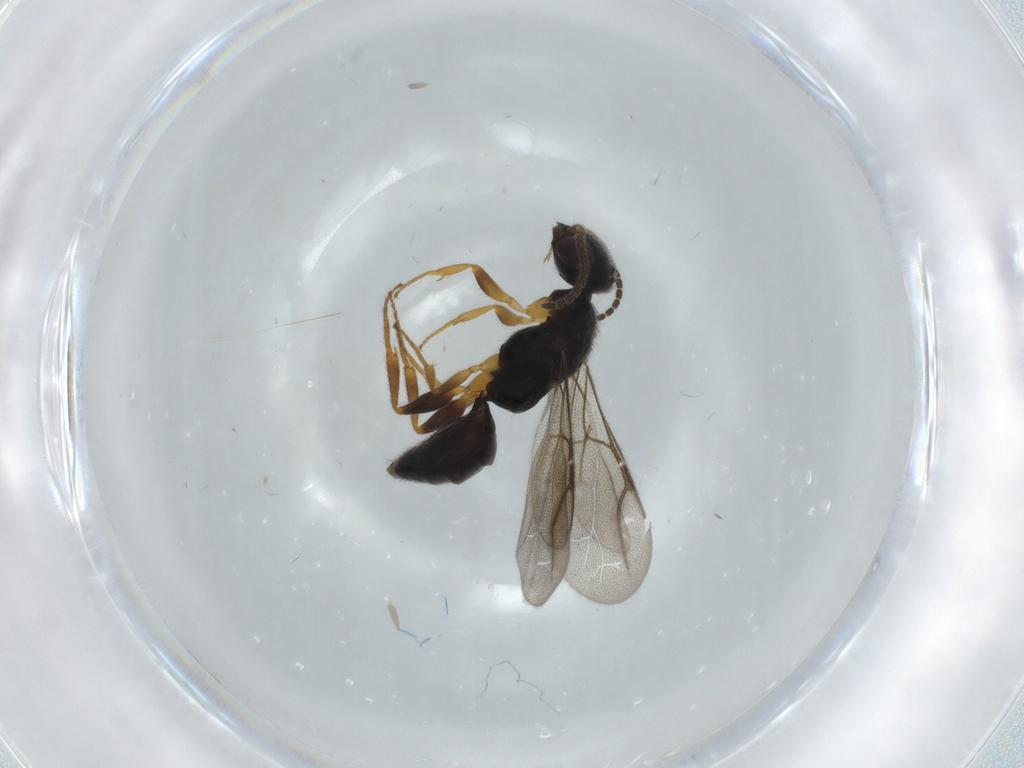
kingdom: Animalia
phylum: Arthropoda
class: Insecta
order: Hymenoptera
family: Bethylidae
